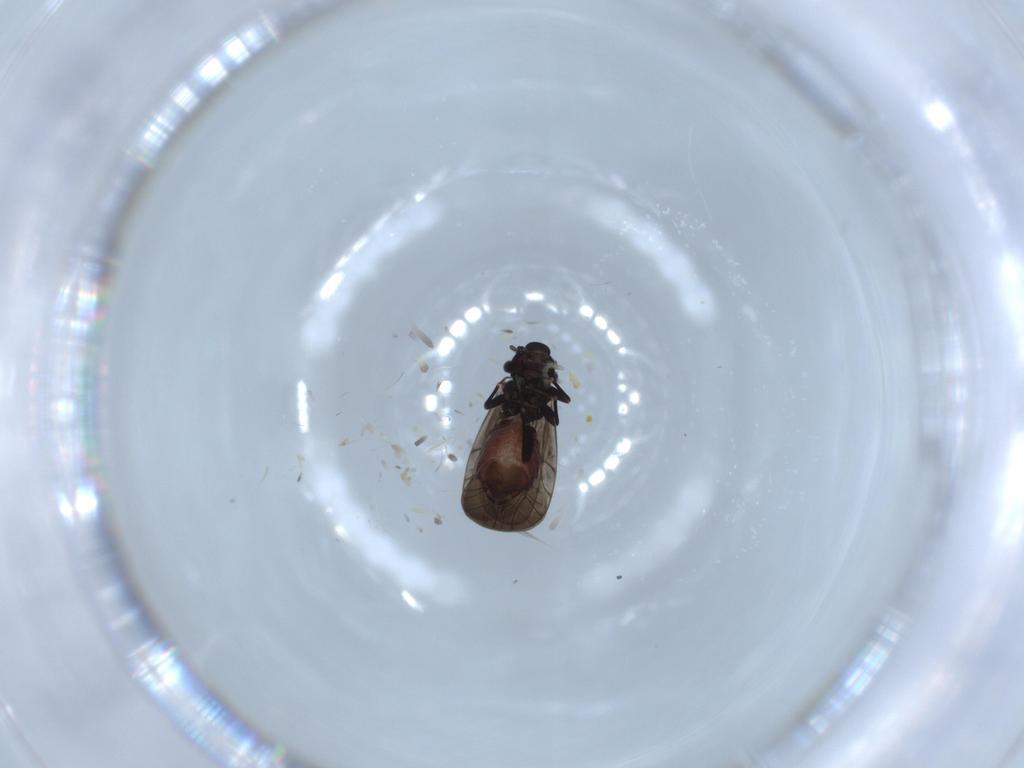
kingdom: Animalia
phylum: Arthropoda
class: Insecta
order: Psocodea
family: Lepidopsocidae
